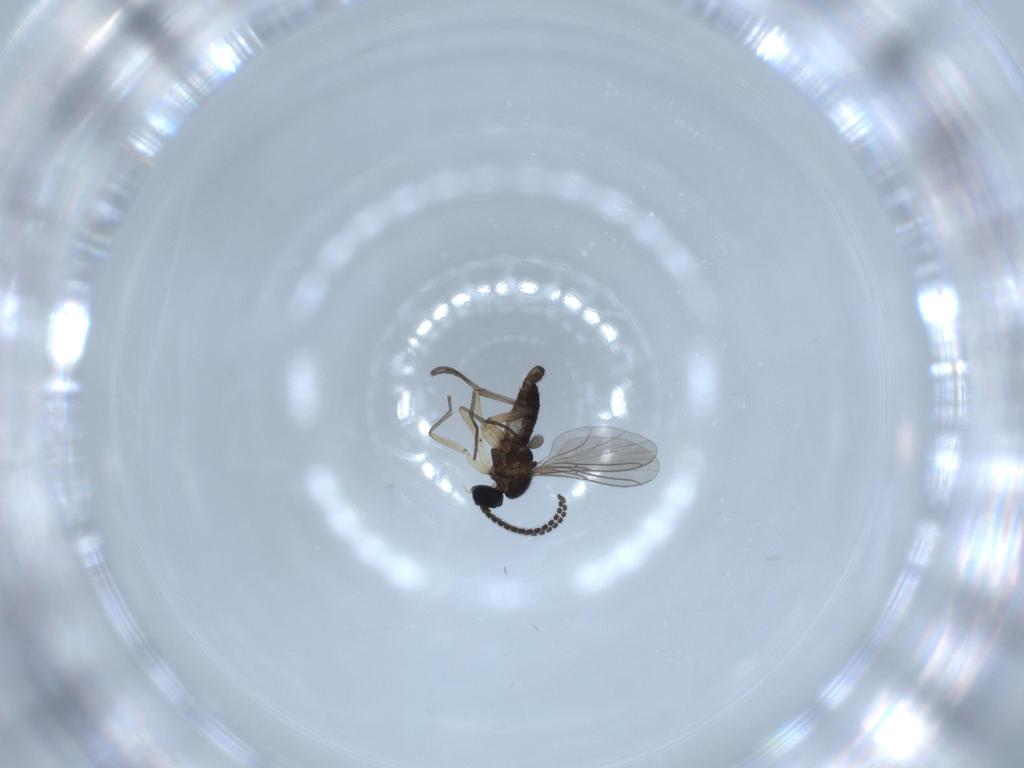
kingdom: Animalia
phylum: Arthropoda
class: Insecta
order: Diptera
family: Sciaridae
